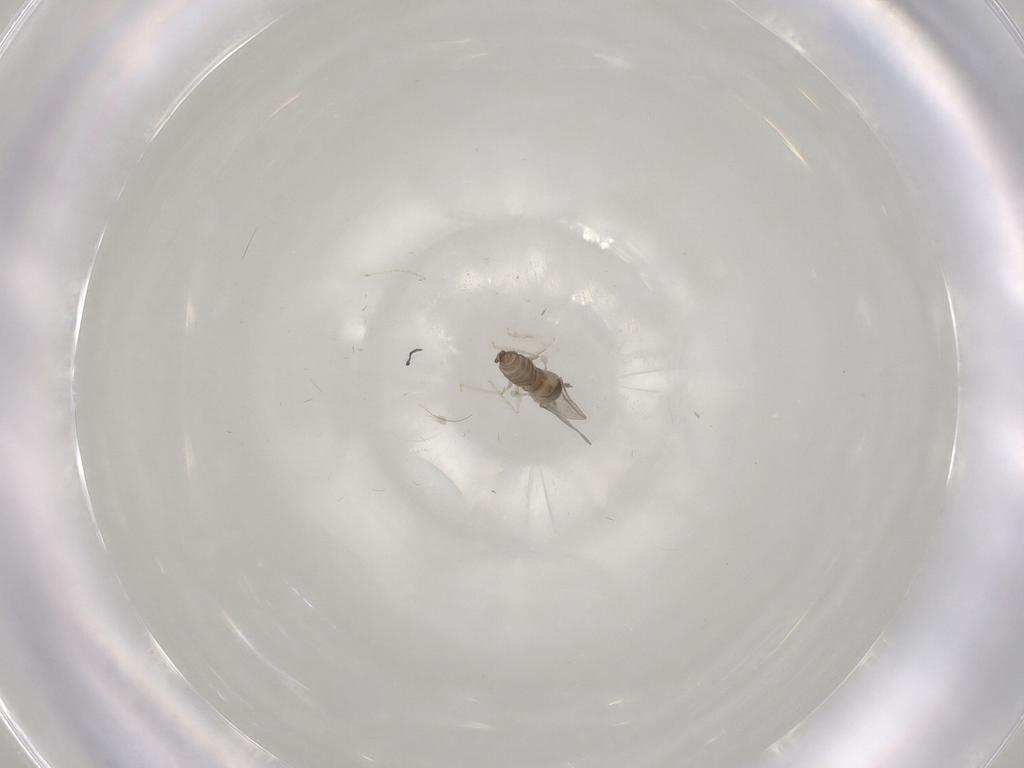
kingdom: Animalia
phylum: Arthropoda
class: Insecta
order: Diptera
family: Cecidomyiidae
